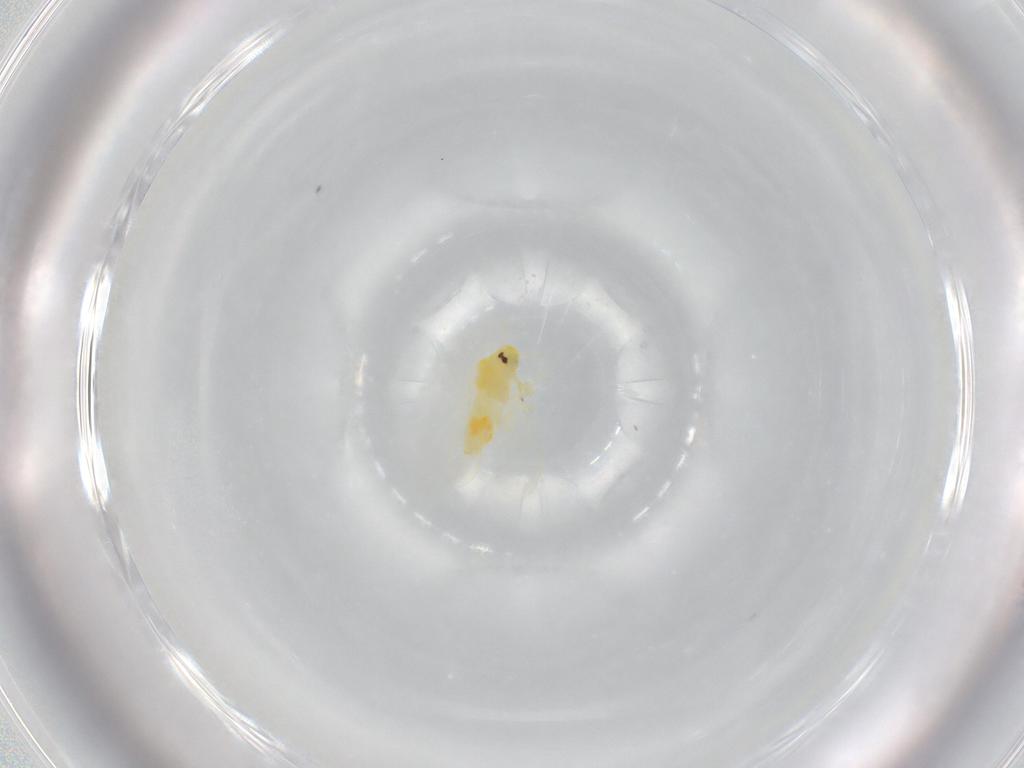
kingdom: Animalia
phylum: Arthropoda
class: Insecta
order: Hemiptera
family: Aleyrodidae
